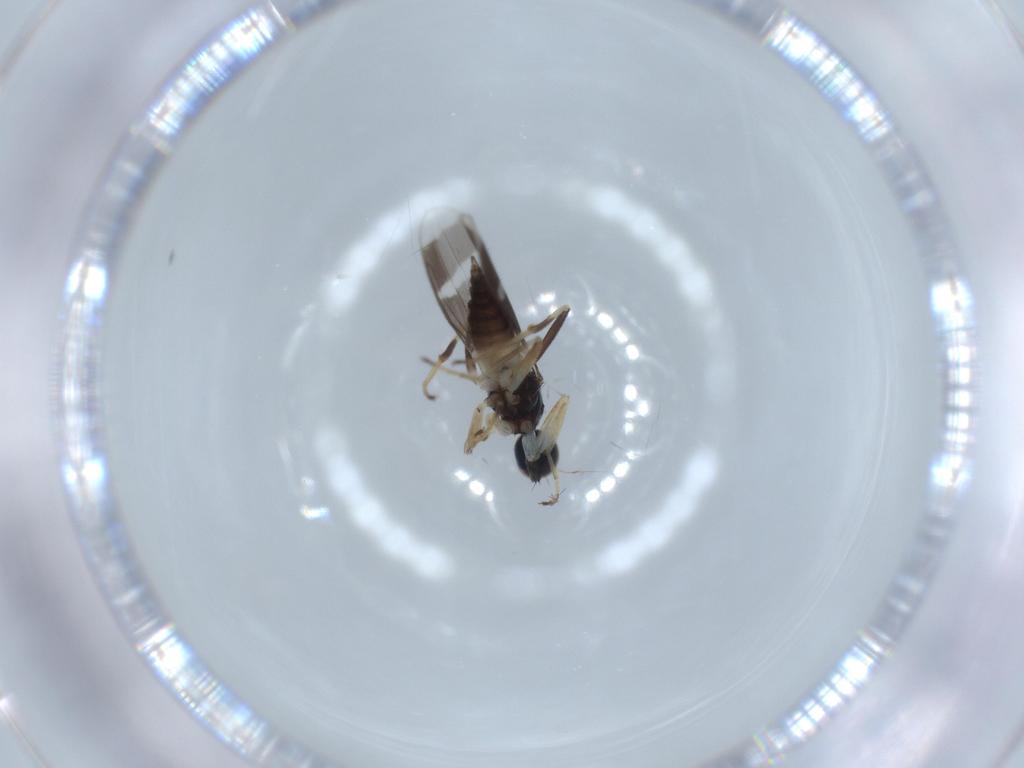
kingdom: Animalia
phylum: Arthropoda
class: Insecta
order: Diptera
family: Hybotidae
